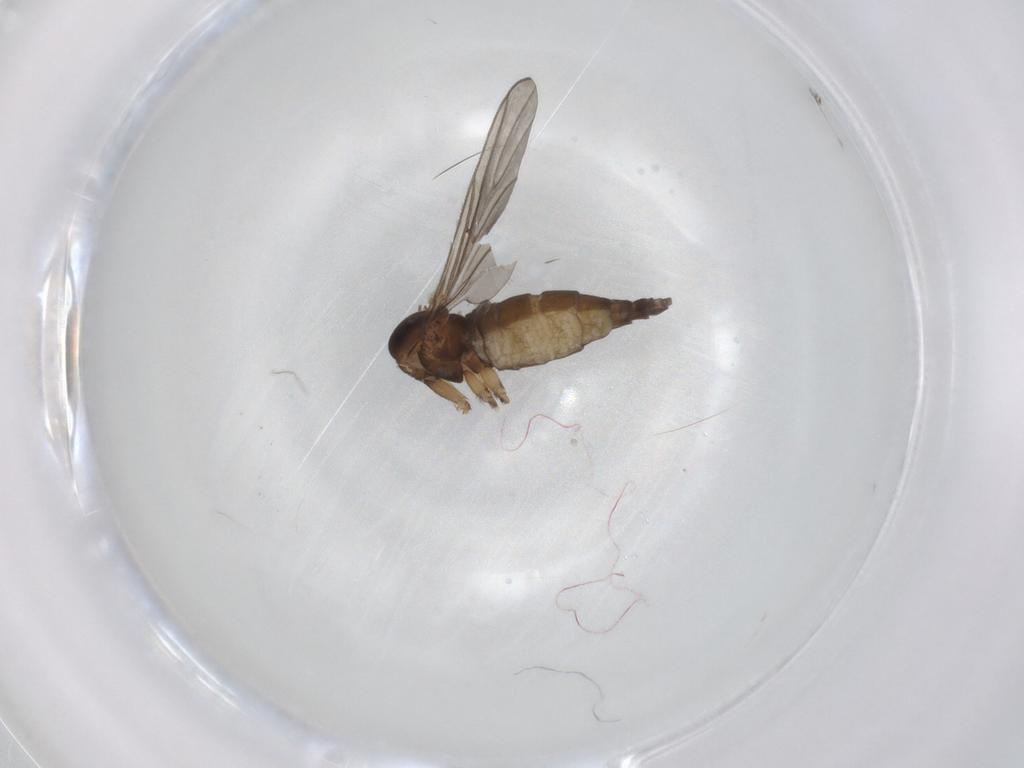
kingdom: Animalia
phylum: Arthropoda
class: Insecta
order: Diptera
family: Sciaridae
